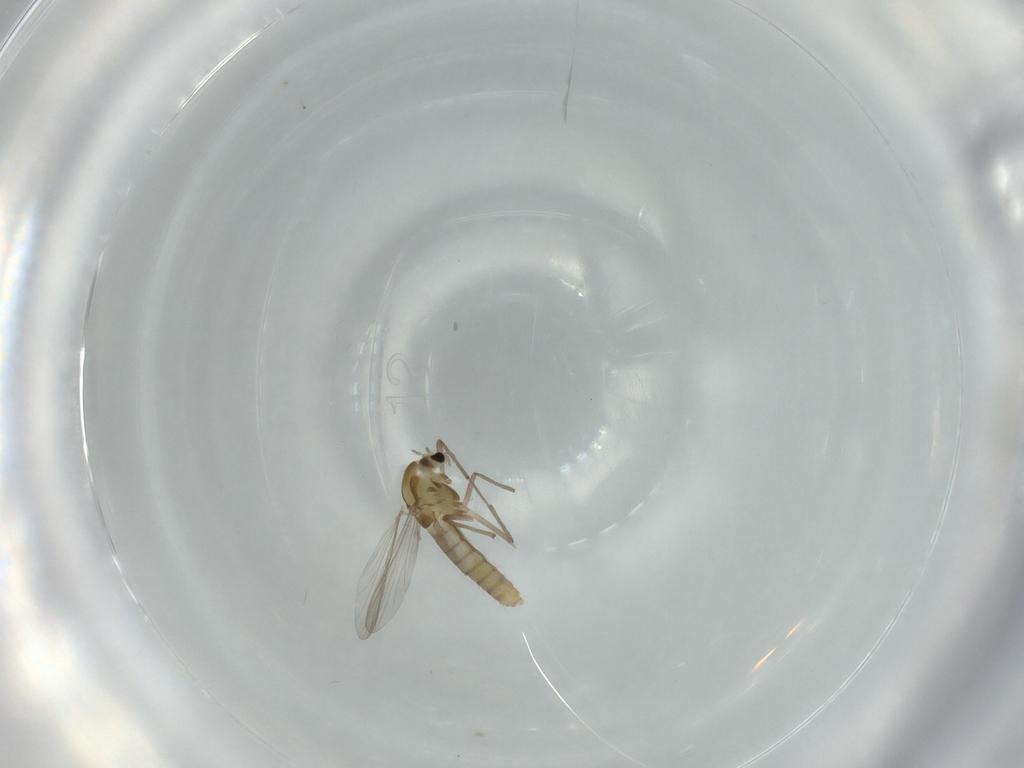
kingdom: Animalia
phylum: Arthropoda
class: Insecta
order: Diptera
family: Chironomidae
